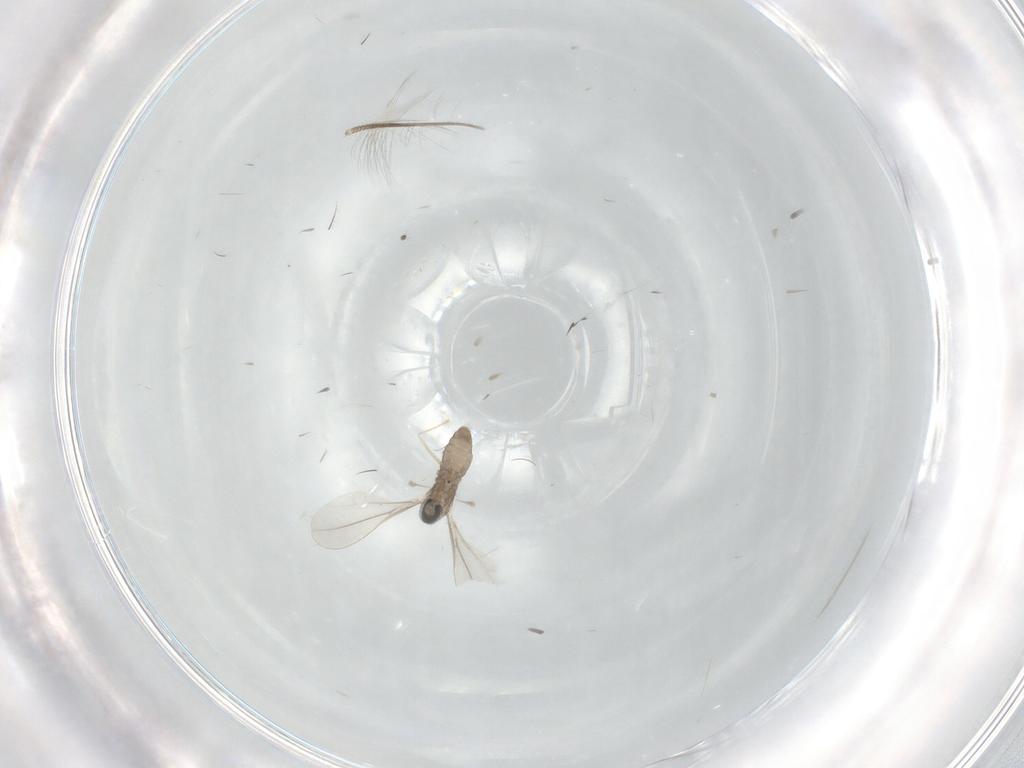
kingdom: Animalia
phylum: Arthropoda
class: Insecta
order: Diptera
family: Cecidomyiidae
